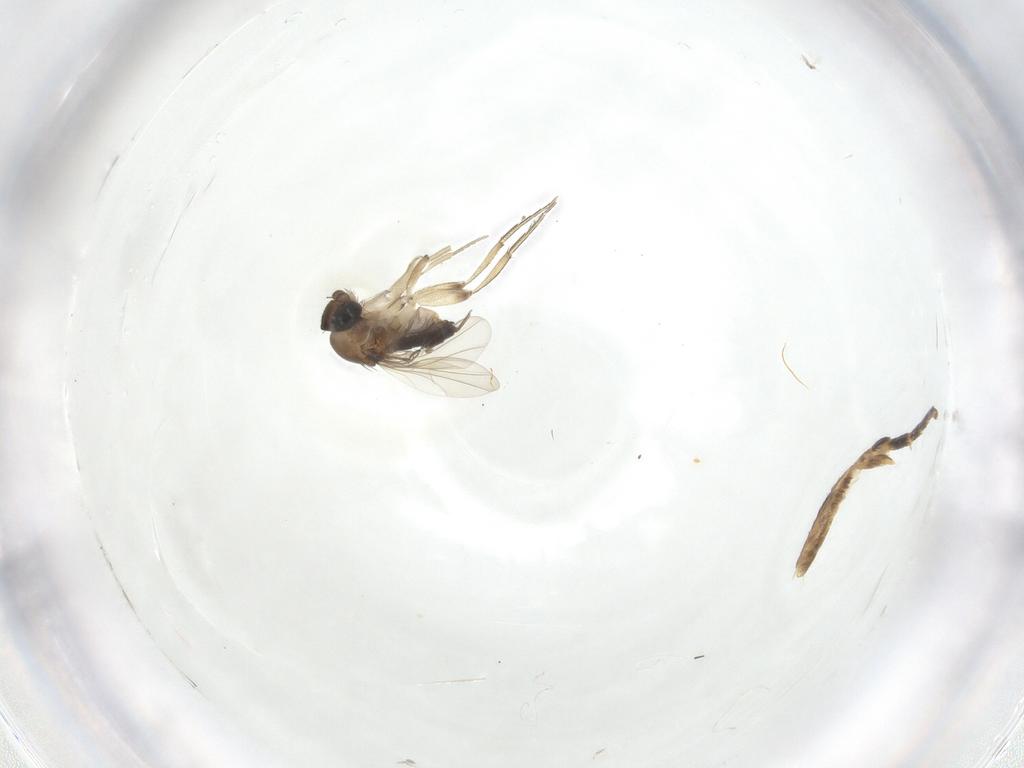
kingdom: Animalia
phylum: Arthropoda
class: Insecta
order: Diptera
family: Phoridae
